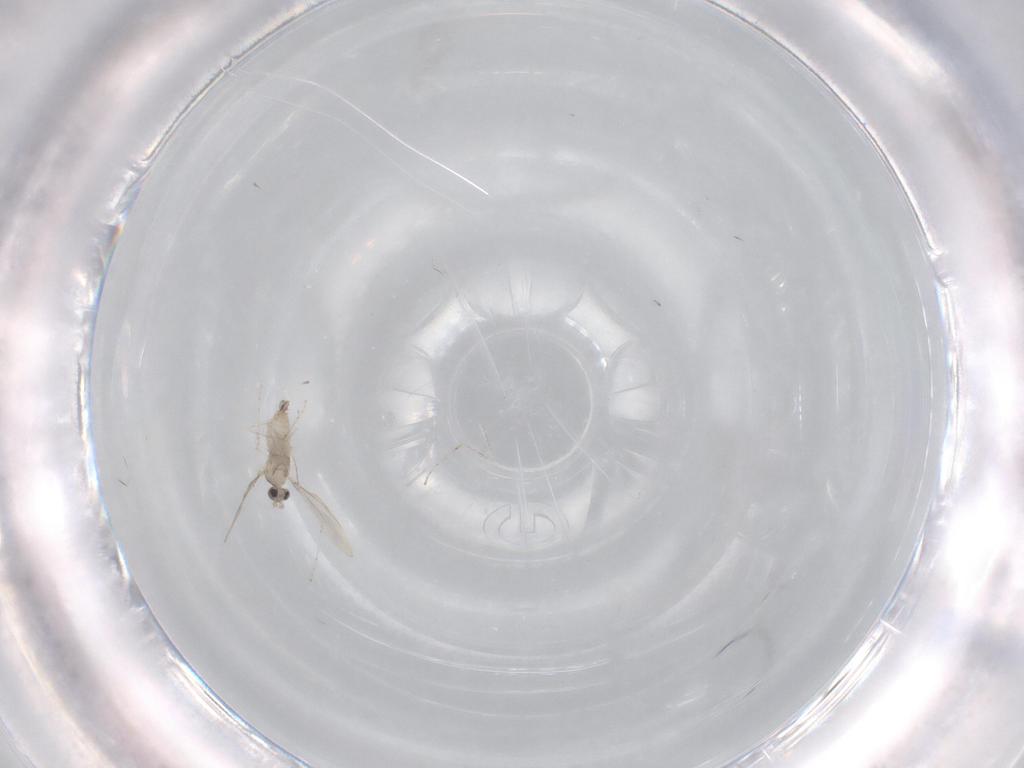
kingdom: Animalia
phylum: Arthropoda
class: Insecta
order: Diptera
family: Cecidomyiidae
